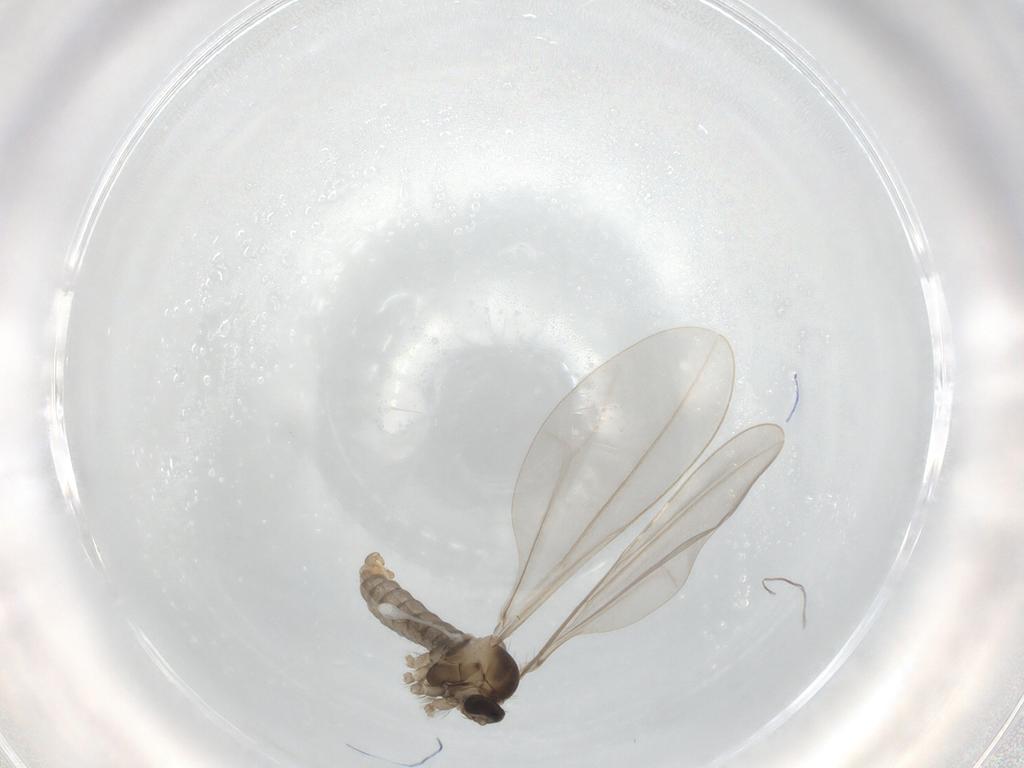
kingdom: Animalia
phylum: Arthropoda
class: Insecta
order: Diptera
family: Cecidomyiidae
